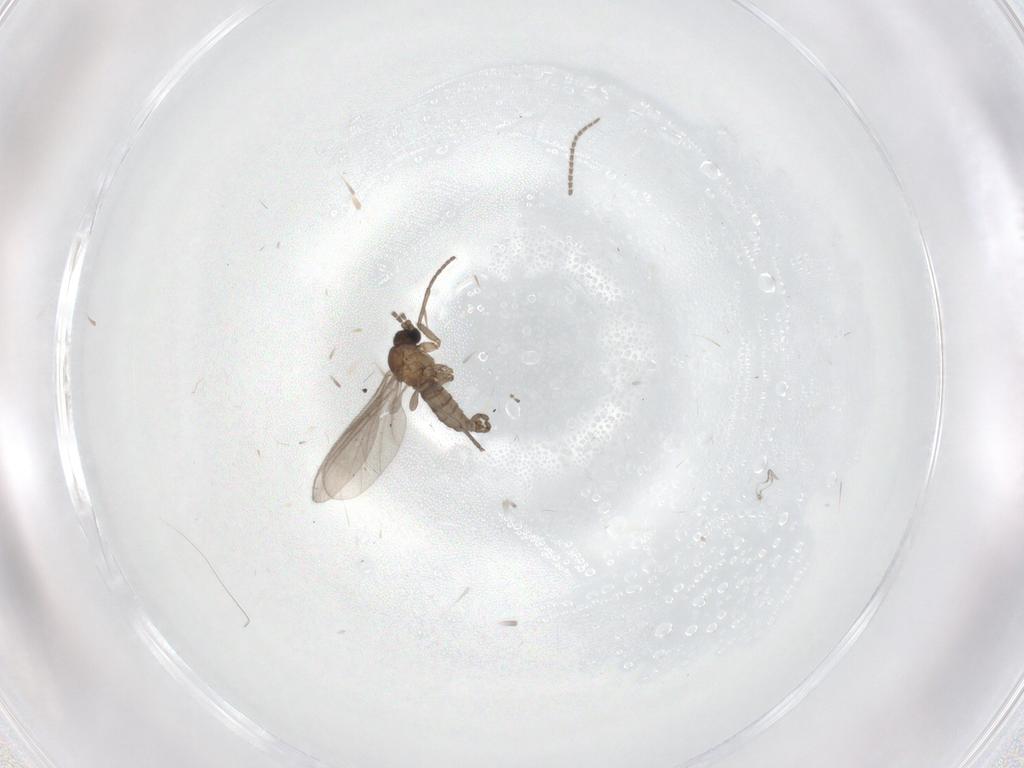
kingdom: Animalia
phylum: Arthropoda
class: Insecta
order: Diptera
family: Sciaridae
